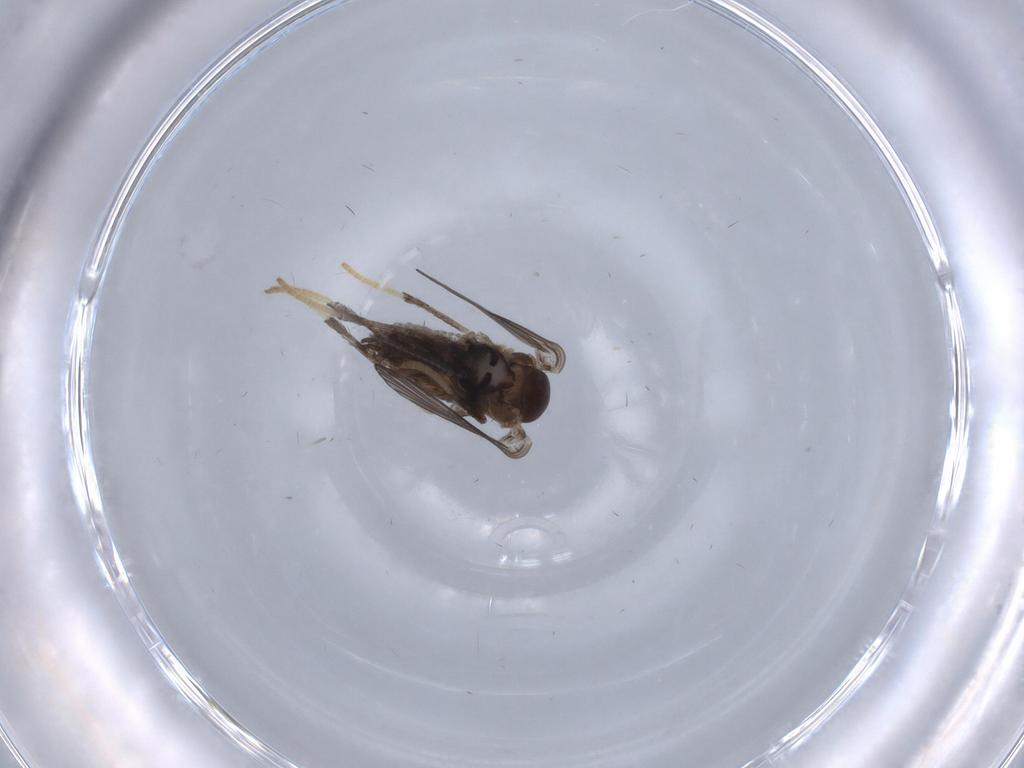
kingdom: Animalia
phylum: Arthropoda
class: Insecta
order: Diptera
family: Psychodidae
